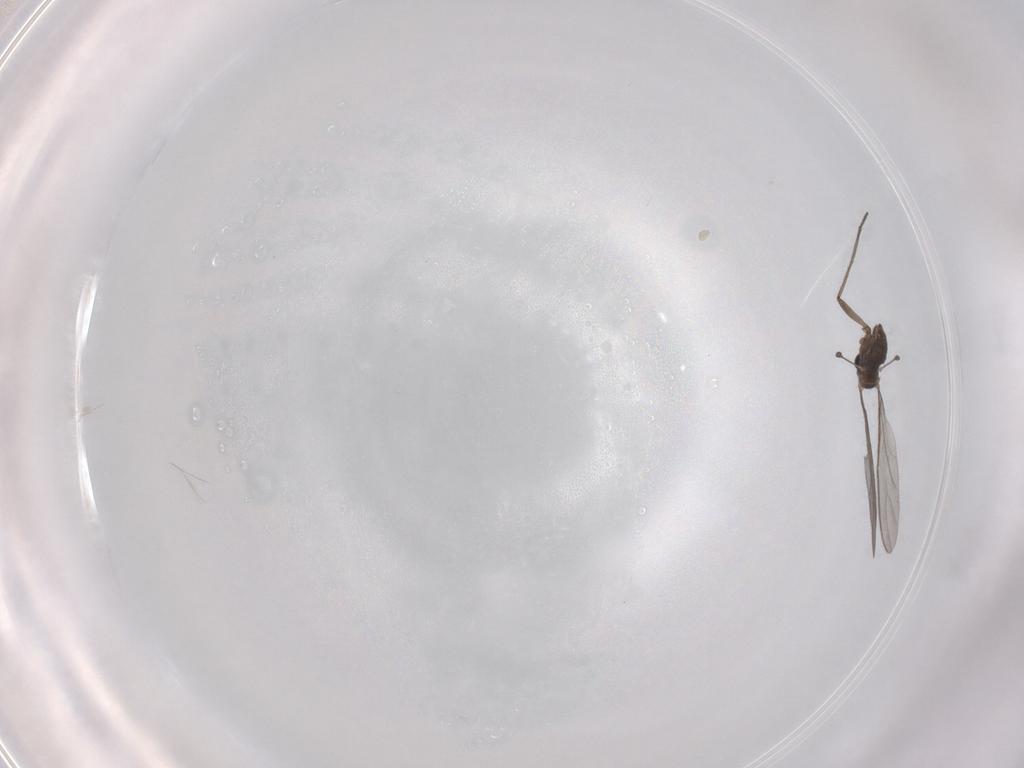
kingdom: Animalia
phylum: Arthropoda
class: Insecta
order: Diptera
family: Sciaridae
